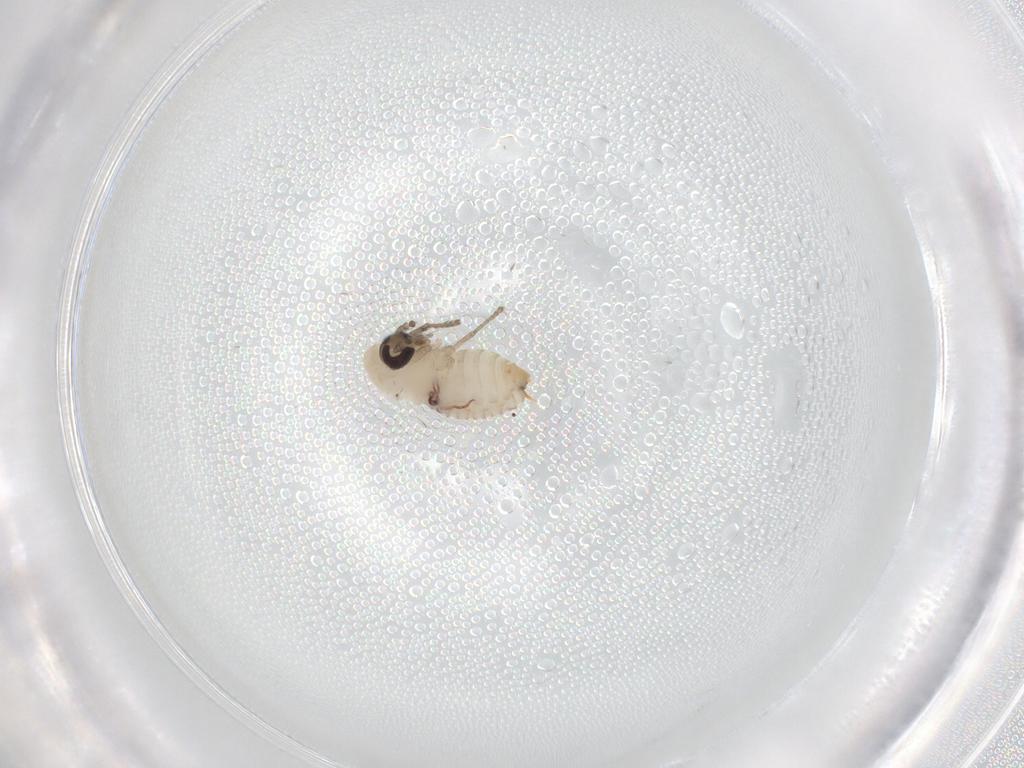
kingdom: Animalia
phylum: Arthropoda
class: Insecta
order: Diptera
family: Psychodidae
